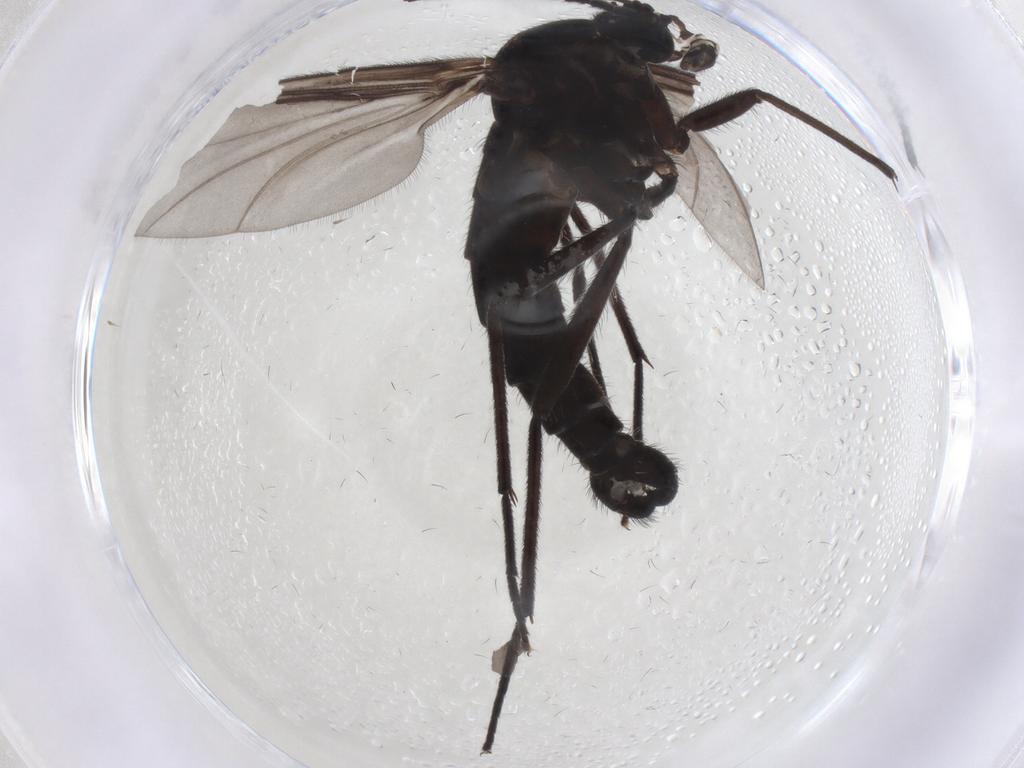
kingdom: Animalia
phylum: Arthropoda
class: Insecta
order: Diptera
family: Sciaridae
